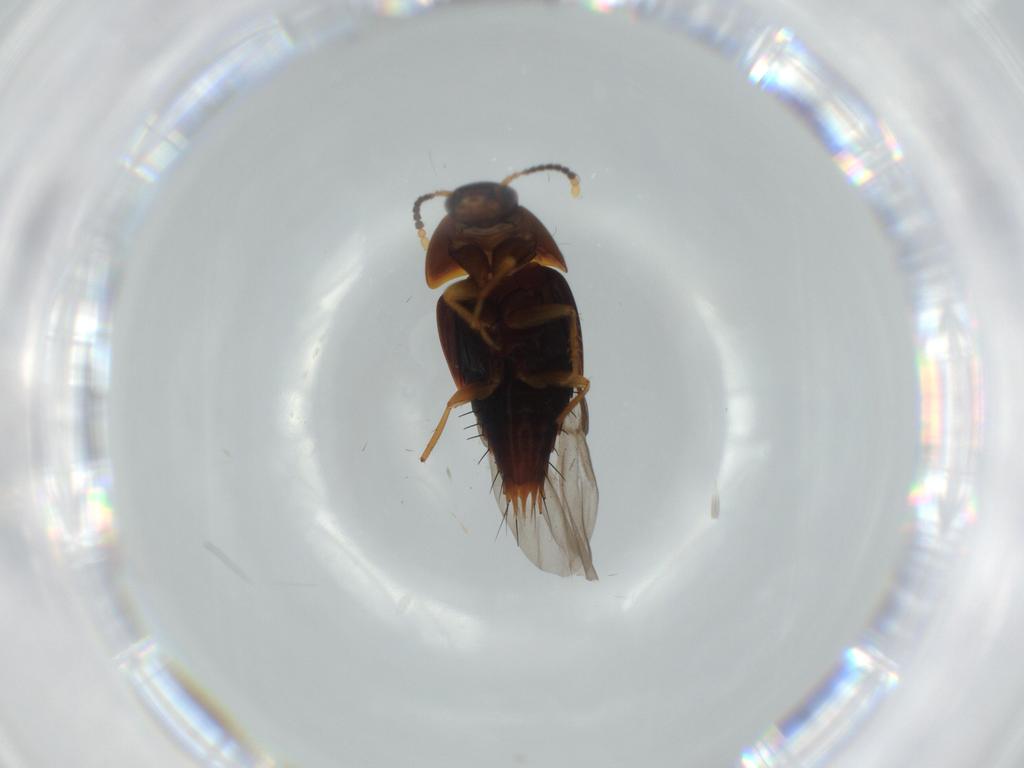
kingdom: Animalia
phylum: Arthropoda
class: Insecta
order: Coleoptera
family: Staphylinidae
